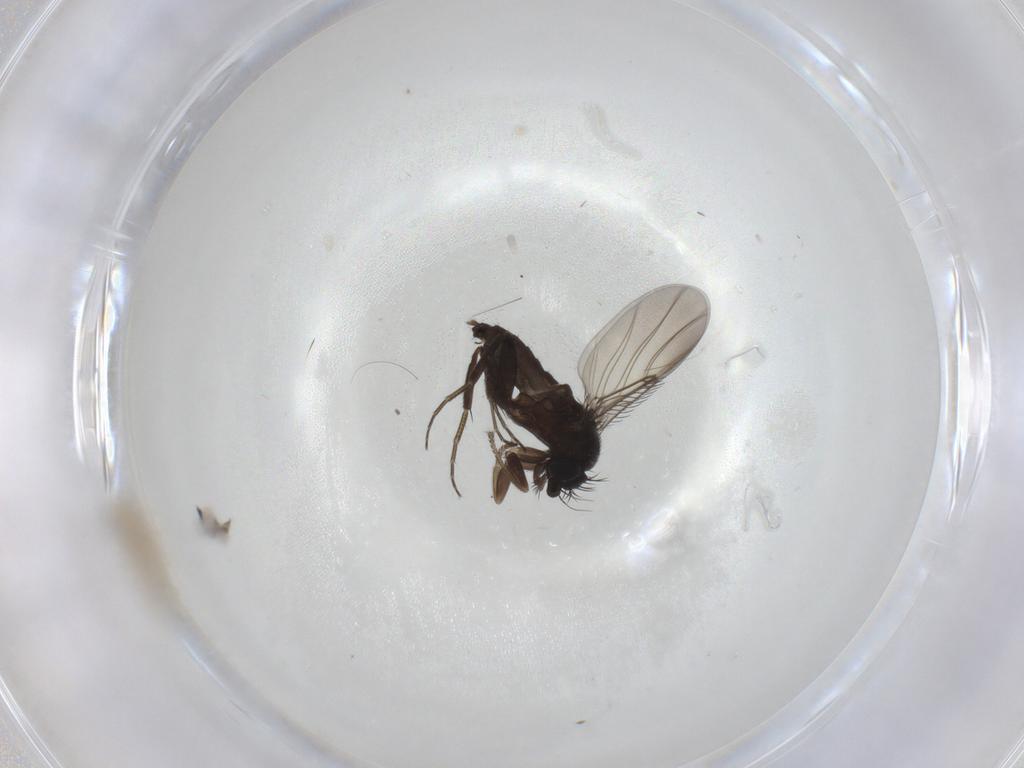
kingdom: Animalia
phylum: Arthropoda
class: Insecta
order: Diptera
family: Phoridae
